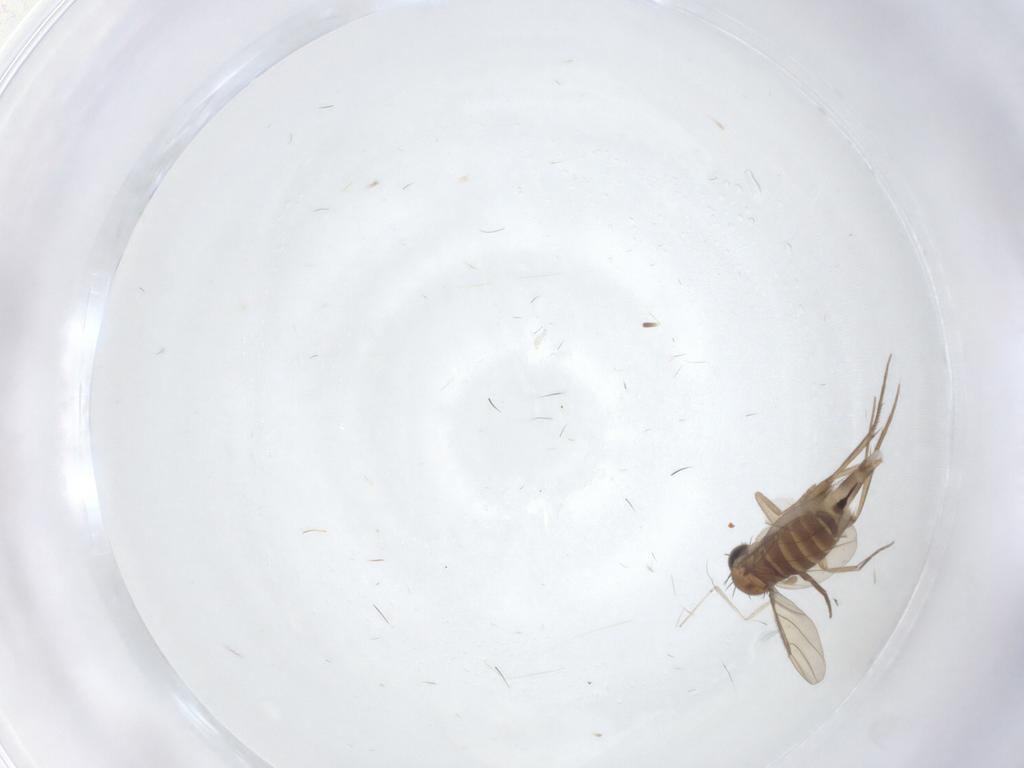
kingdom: Animalia
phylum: Arthropoda
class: Insecta
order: Diptera
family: Phoridae
